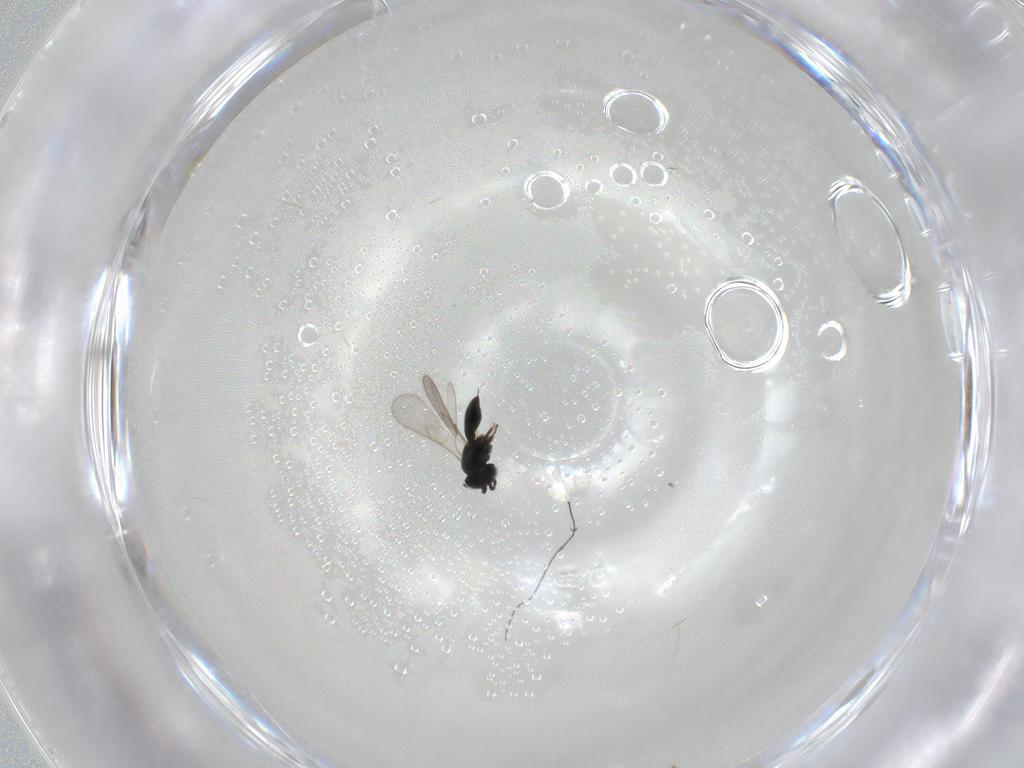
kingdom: Animalia
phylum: Arthropoda
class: Insecta
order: Hymenoptera
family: Scelionidae
